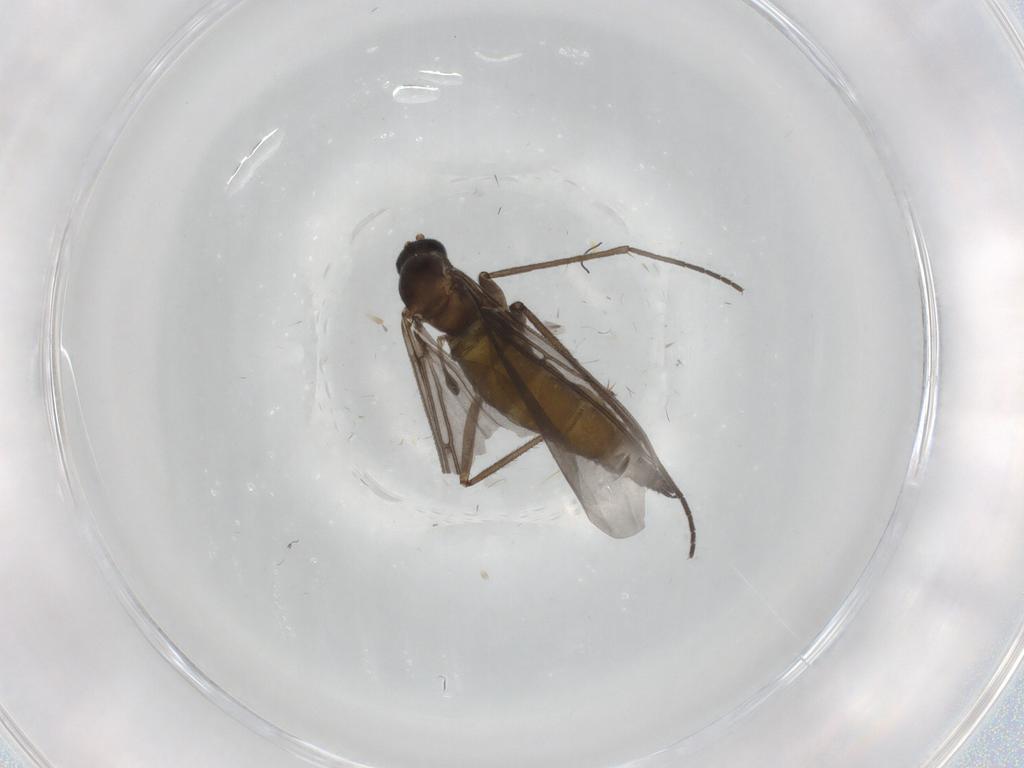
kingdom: Animalia
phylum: Arthropoda
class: Insecta
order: Diptera
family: Sciaridae
